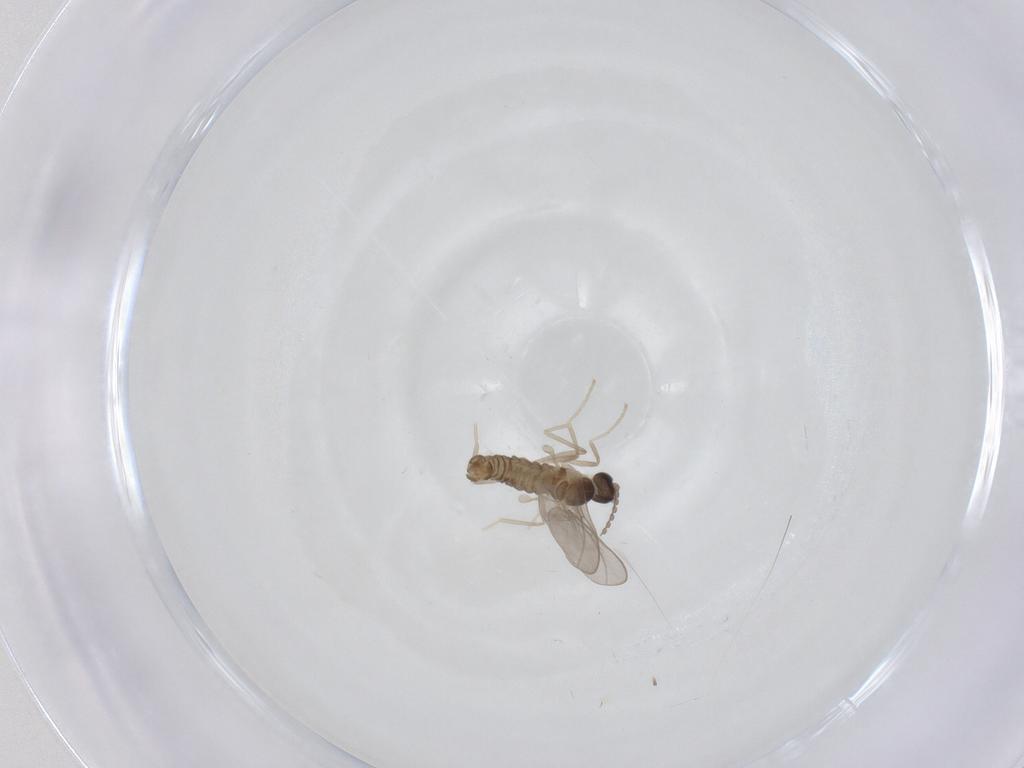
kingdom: Animalia
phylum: Arthropoda
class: Insecta
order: Diptera
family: Cecidomyiidae
